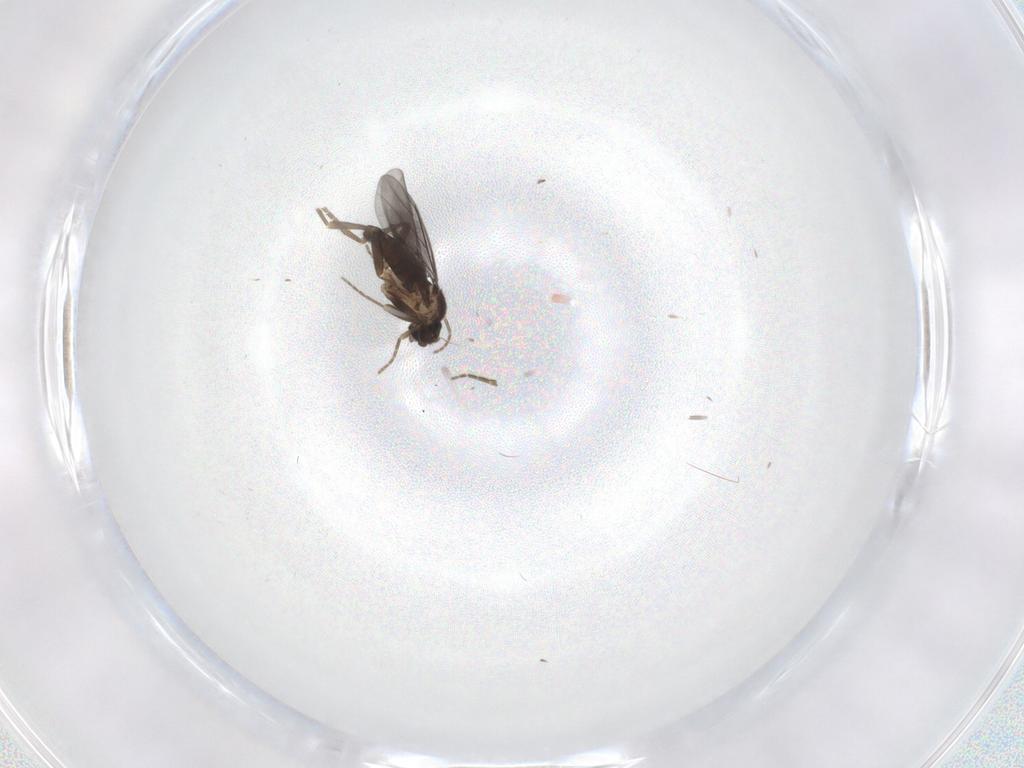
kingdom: Animalia
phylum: Arthropoda
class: Insecta
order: Diptera
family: Phoridae
